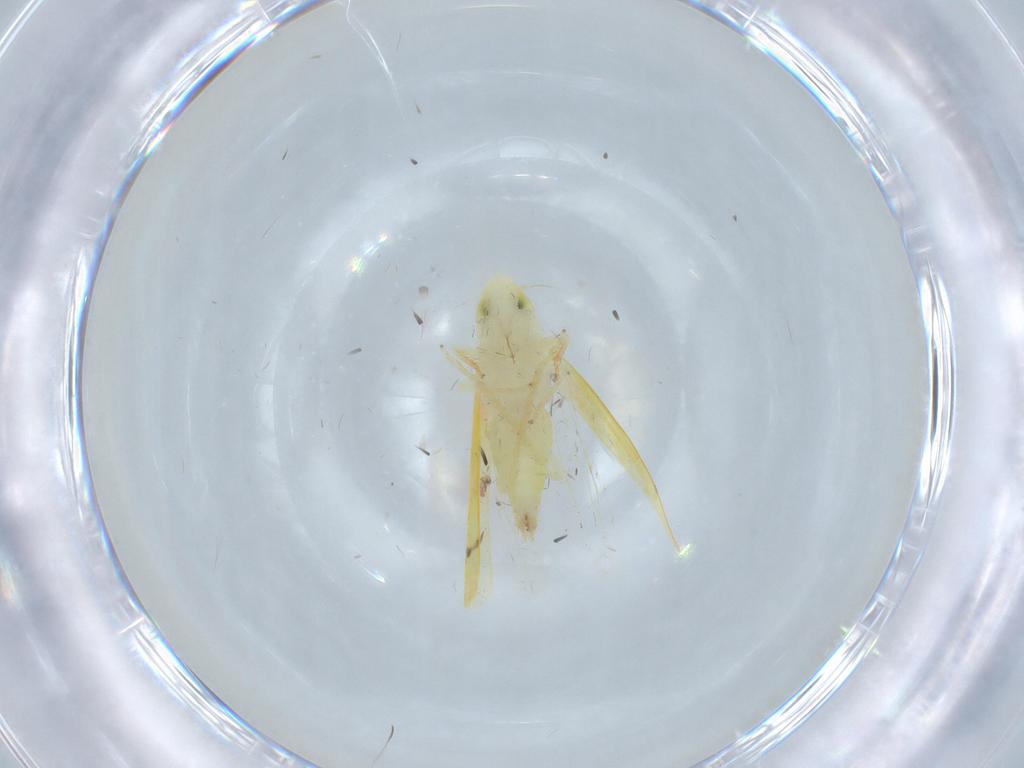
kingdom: Animalia
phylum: Arthropoda
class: Insecta
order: Hemiptera
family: Cicadellidae
